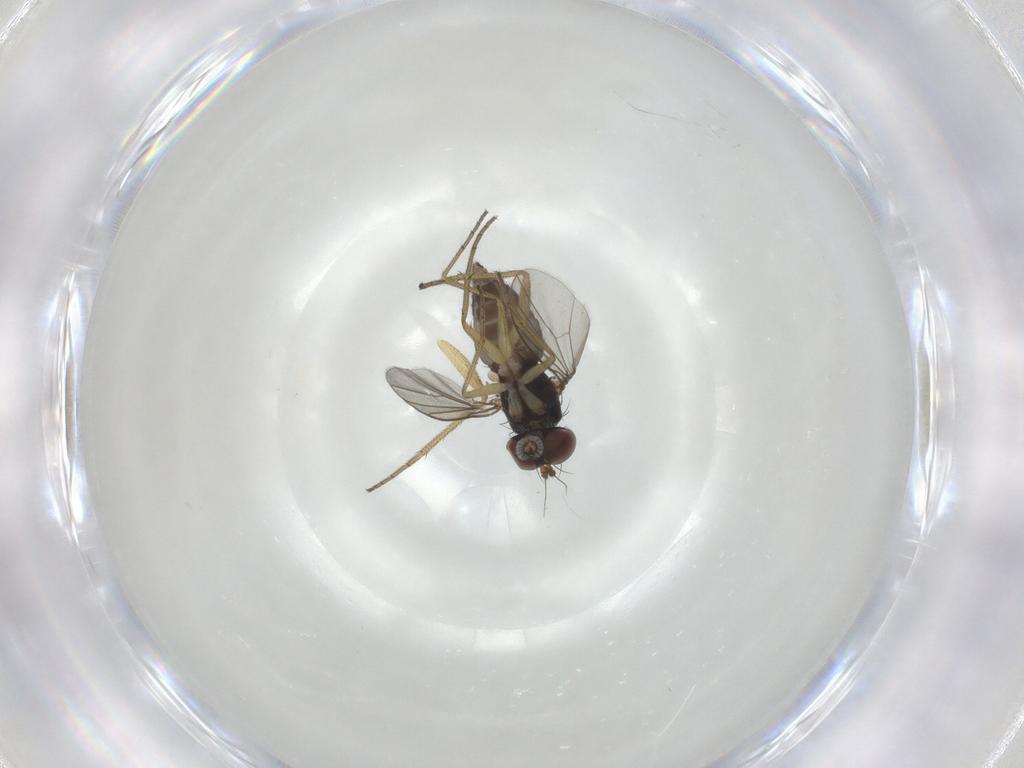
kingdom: Animalia
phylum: Arthropoda
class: Insecta
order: Diptera
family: Dolichopodidae
